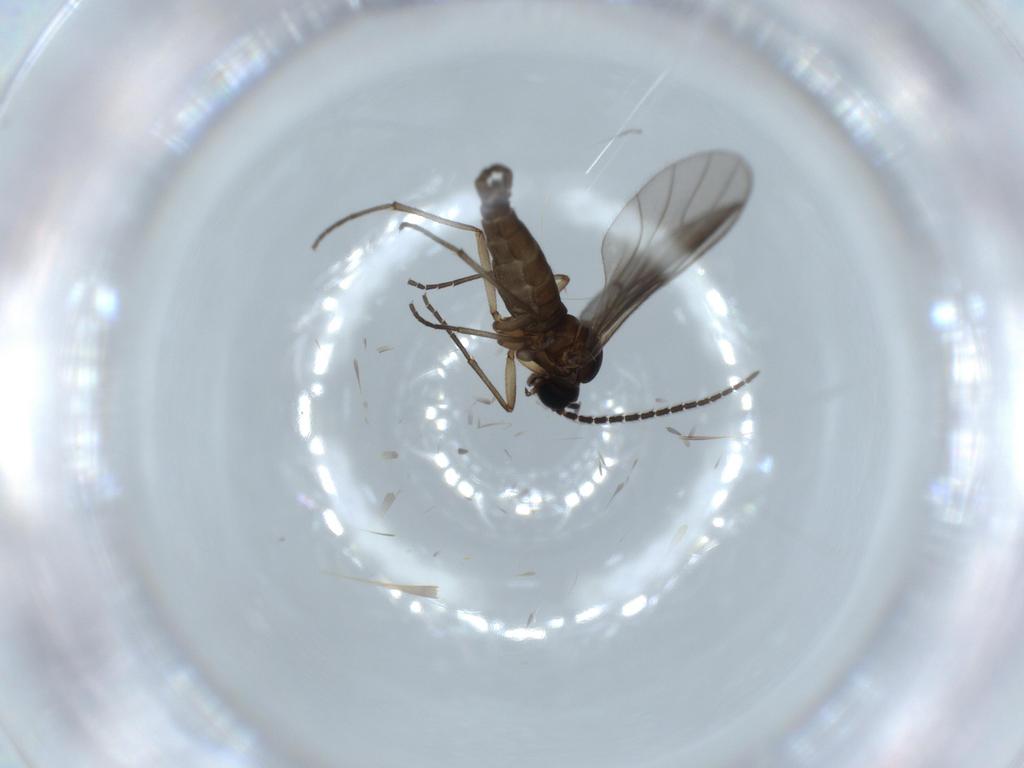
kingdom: Animalia
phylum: Arthropoda
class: Insecta
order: Diptera
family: Sciaridae
